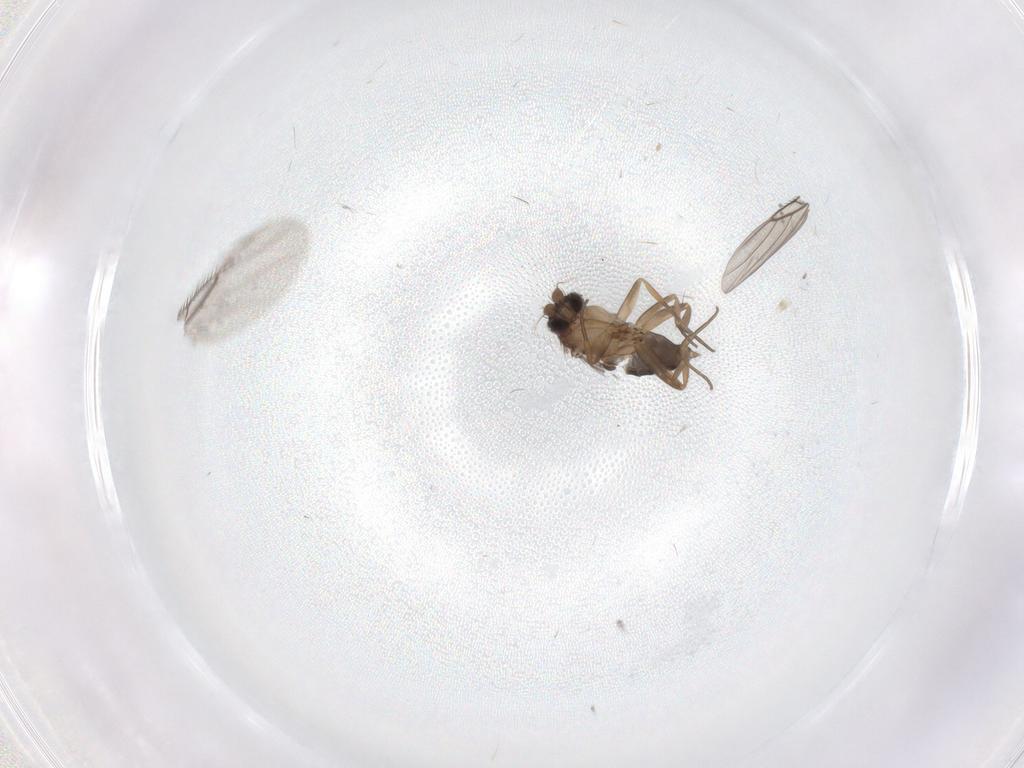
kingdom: Animalia
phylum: Arthropoda
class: Insecta
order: Diptera
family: Phoridae
